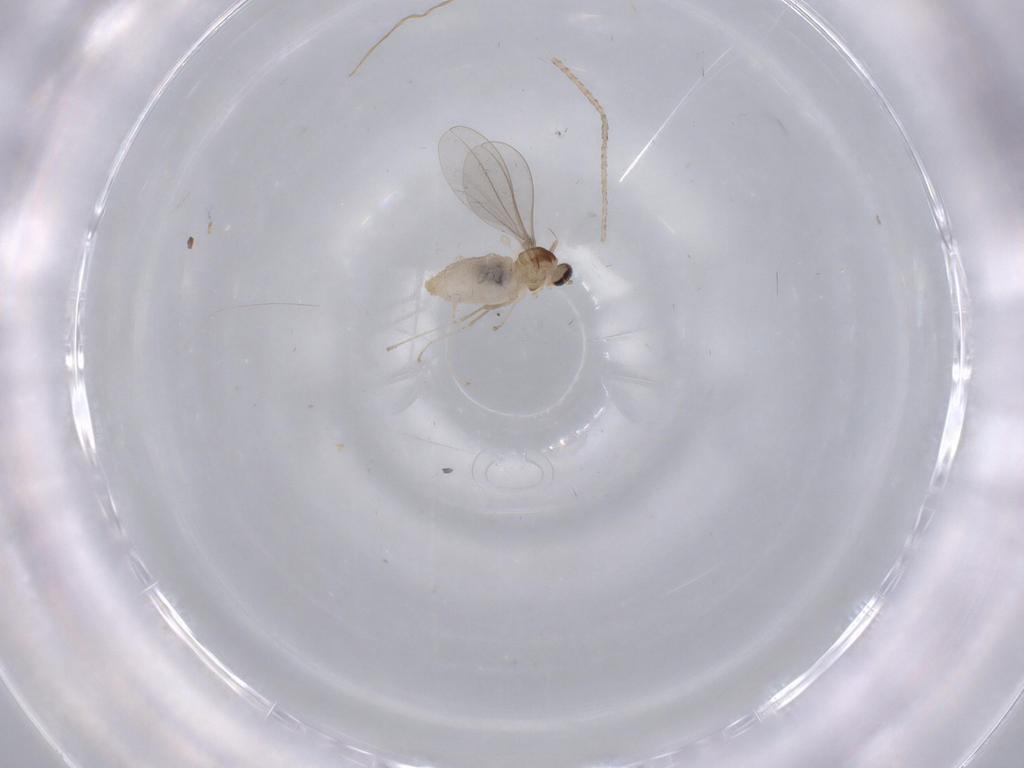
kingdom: Animalia
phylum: Arthropoda
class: Insecta
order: Diptera
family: Cecidomyiidae
